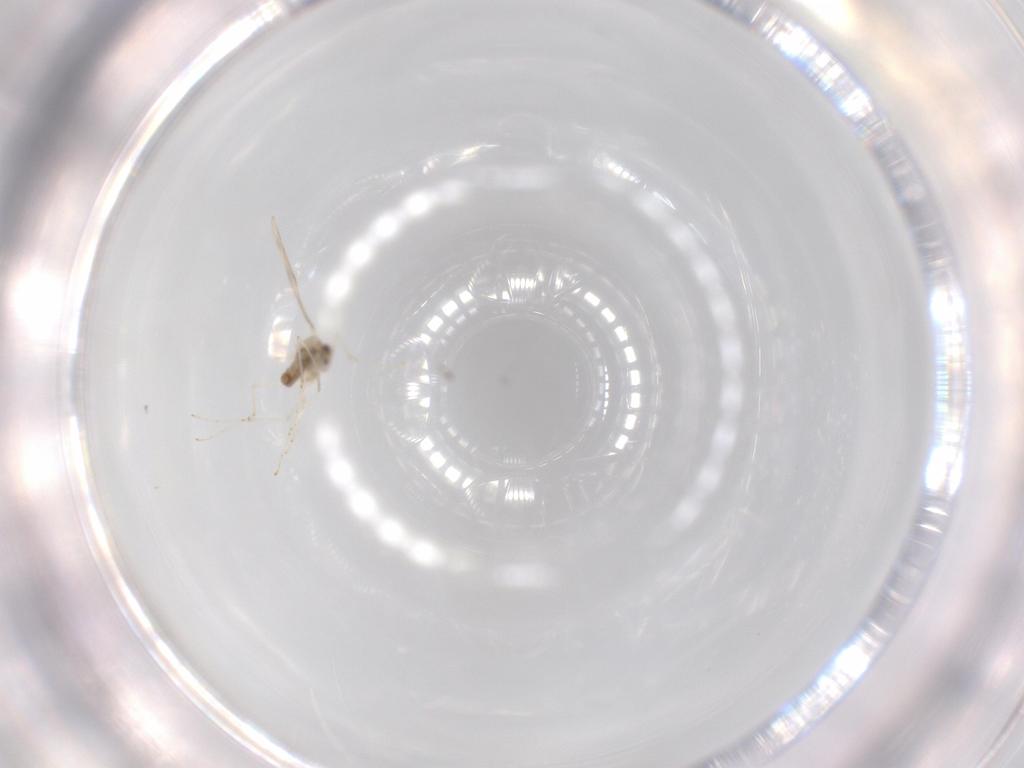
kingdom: Animalia
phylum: Arthropoda
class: Insecta
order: Diptera
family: Cecidomyiidae
